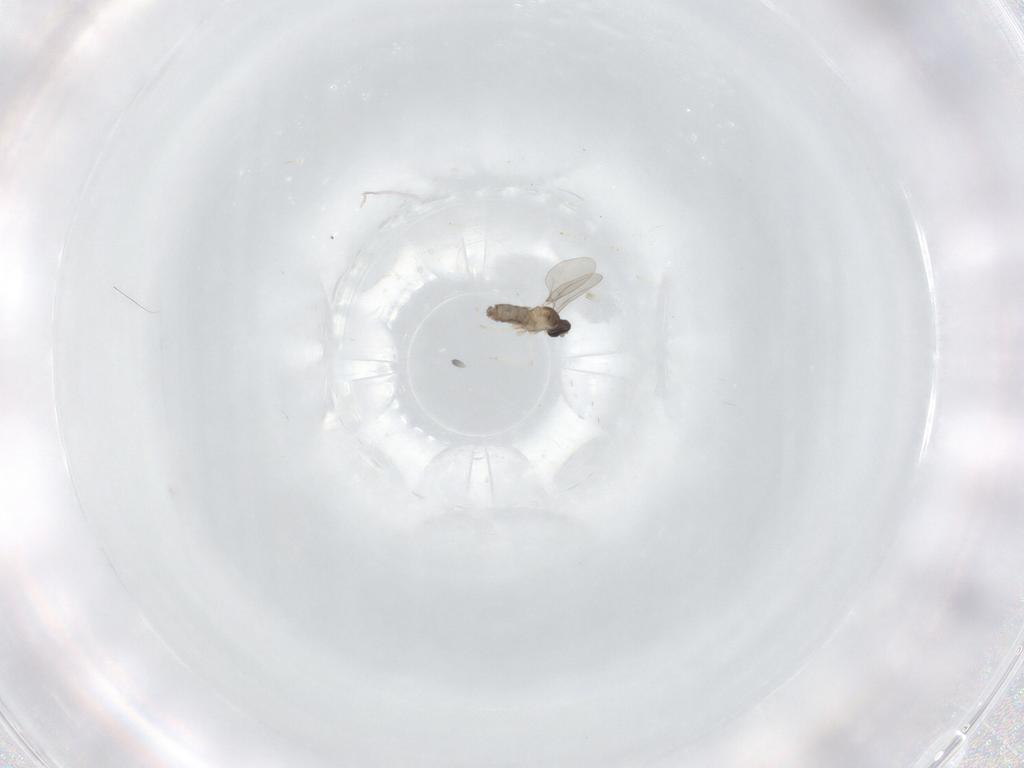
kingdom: Animalia
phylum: Arthropoda
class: Insecta
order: Diptera
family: Cecidomyiidae
